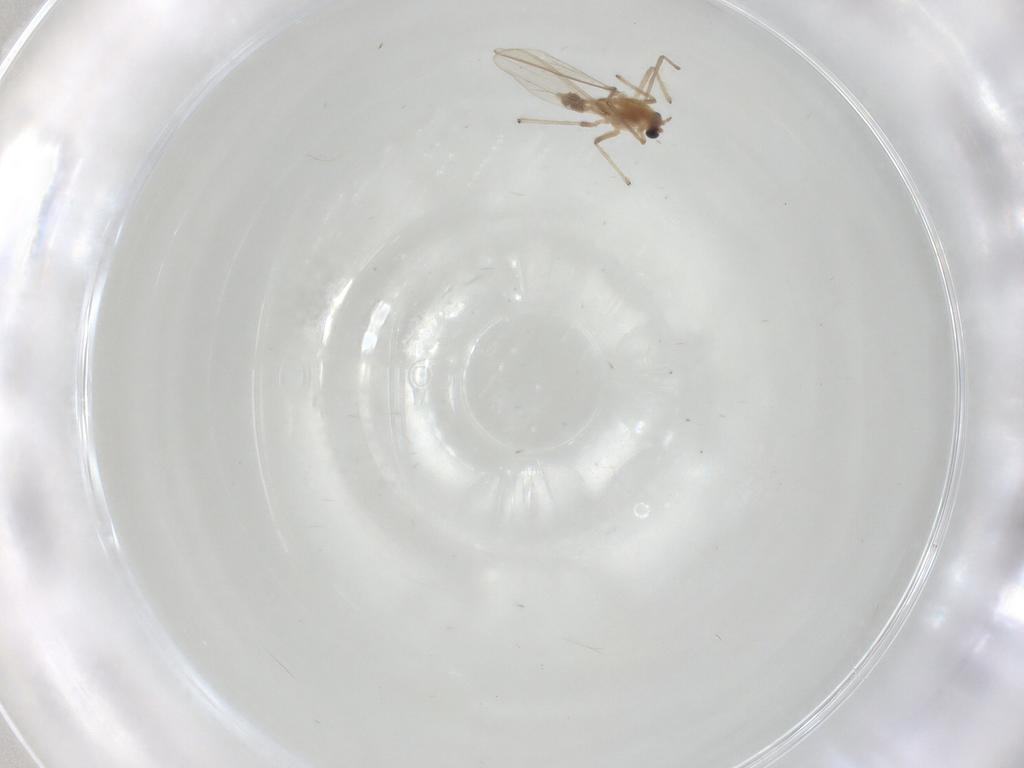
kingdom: Animalia
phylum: Arthropoda
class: Insecta
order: Diptera
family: Chironomidae
